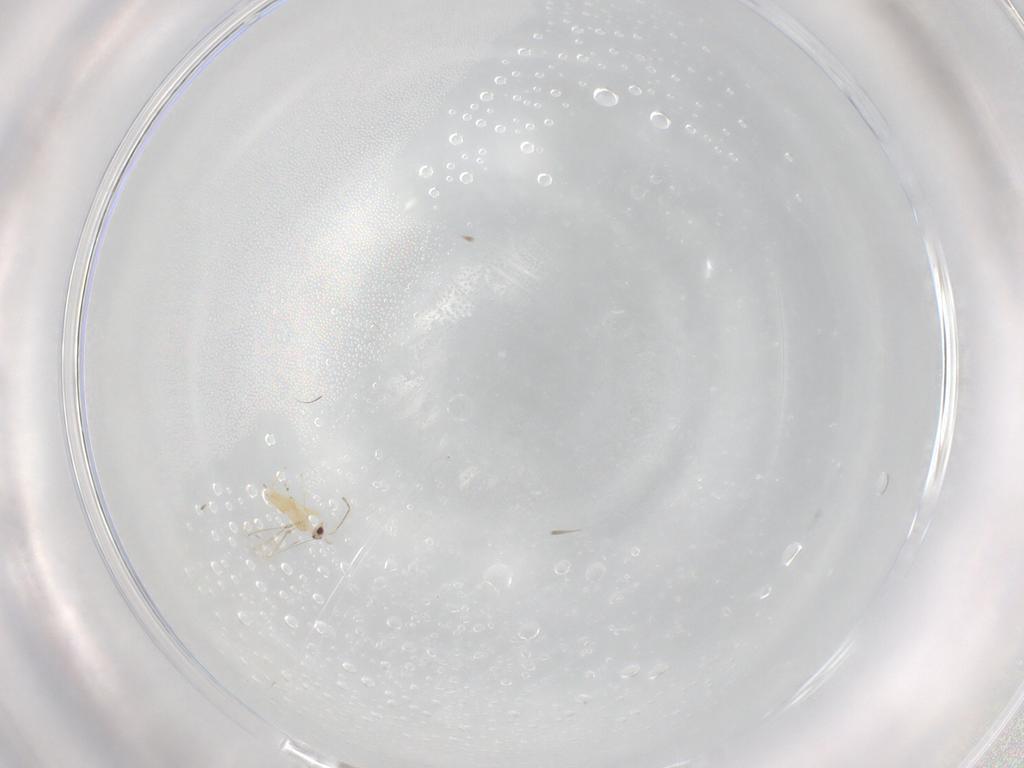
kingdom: Animalia
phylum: Arthropoda
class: Insecta
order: Hymenoptera
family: Mymaridae
